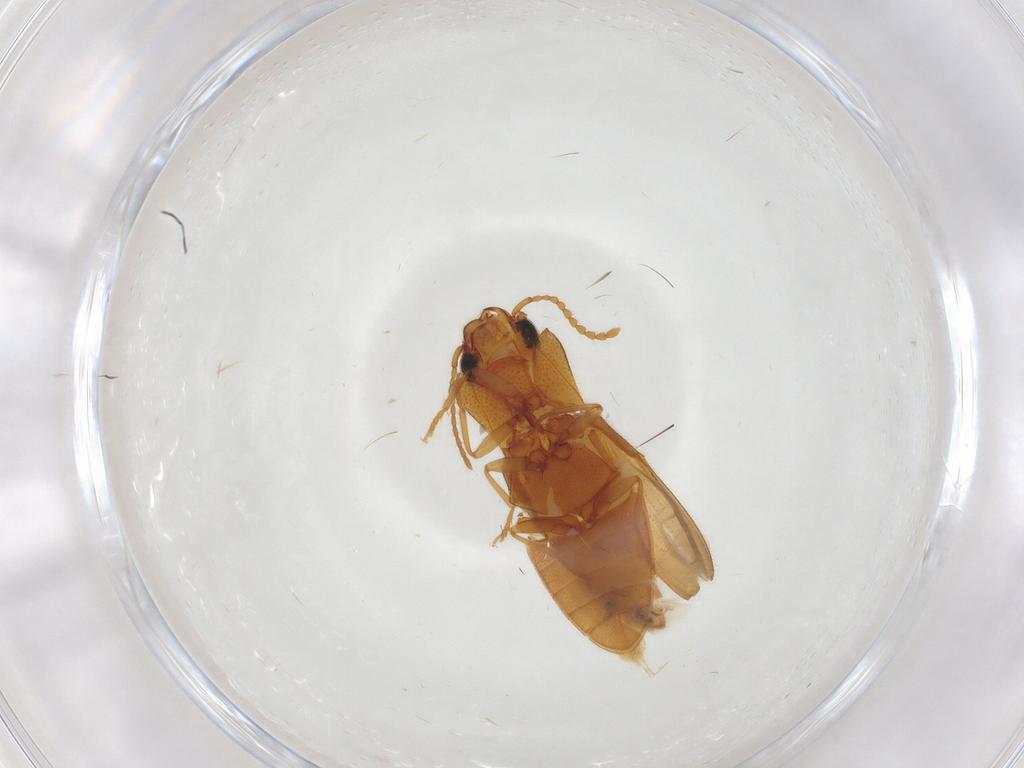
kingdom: Animalia
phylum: Arthropoda
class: Insecta
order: Coleoptera
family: Elateridae
